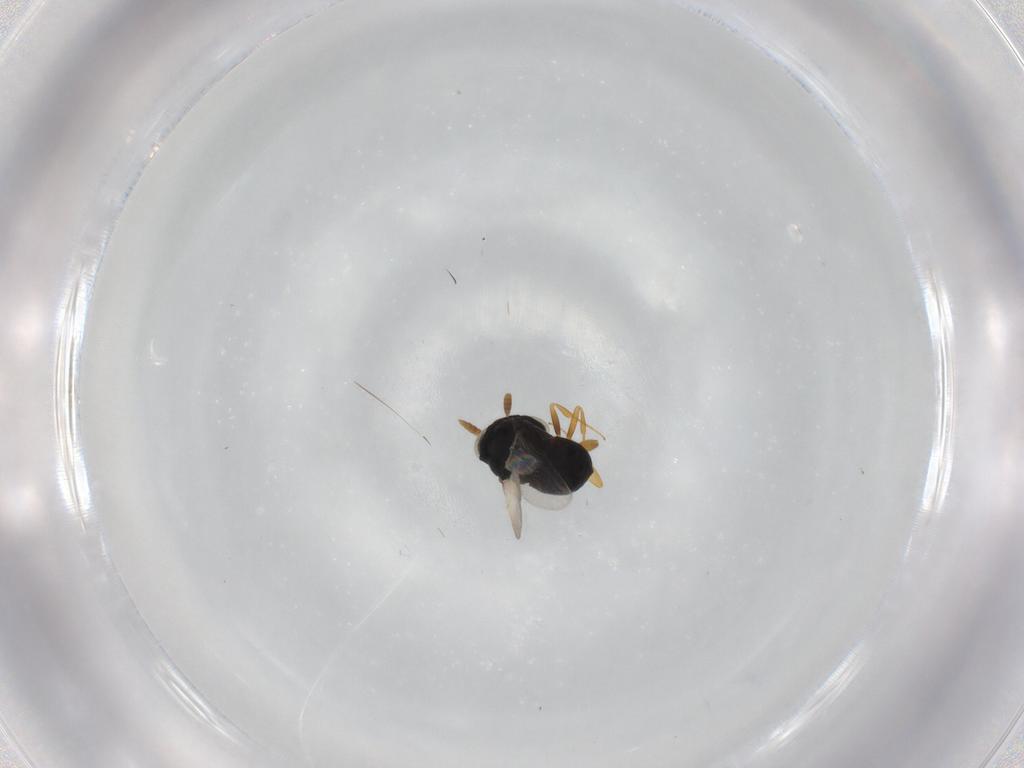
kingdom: Animalia
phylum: Arthropoda
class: Insecta
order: Hymenoptera
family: Scelionidae
